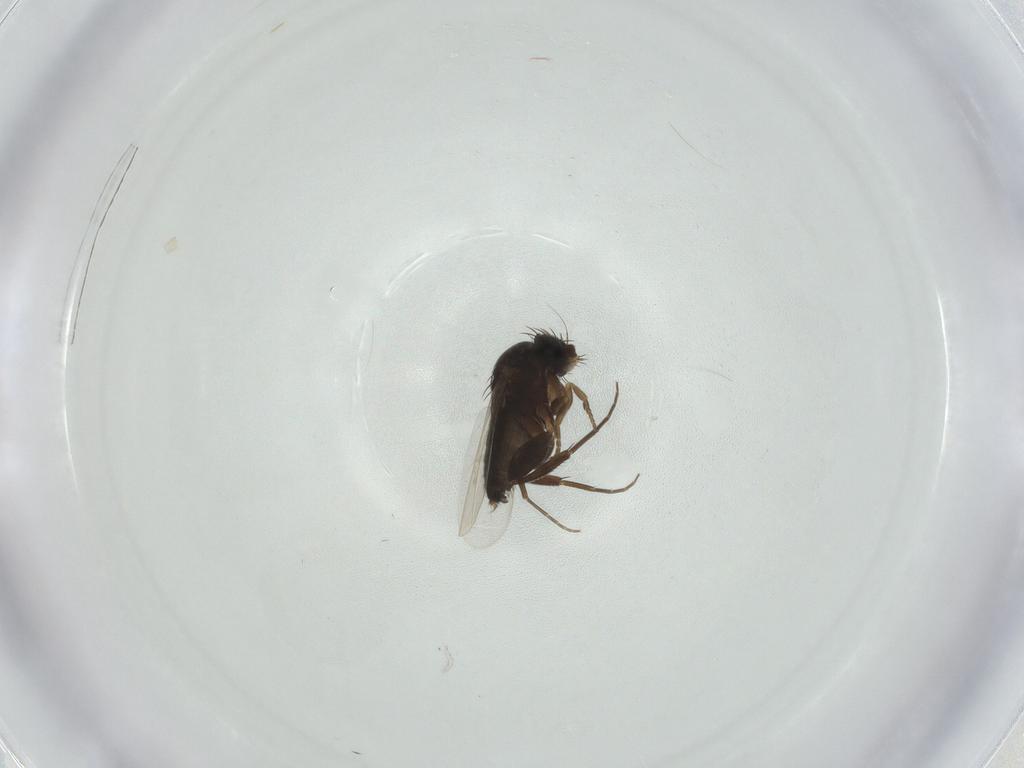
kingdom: Animalia
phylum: Arthropoda
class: Insecta
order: Diptera
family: Phoridae
